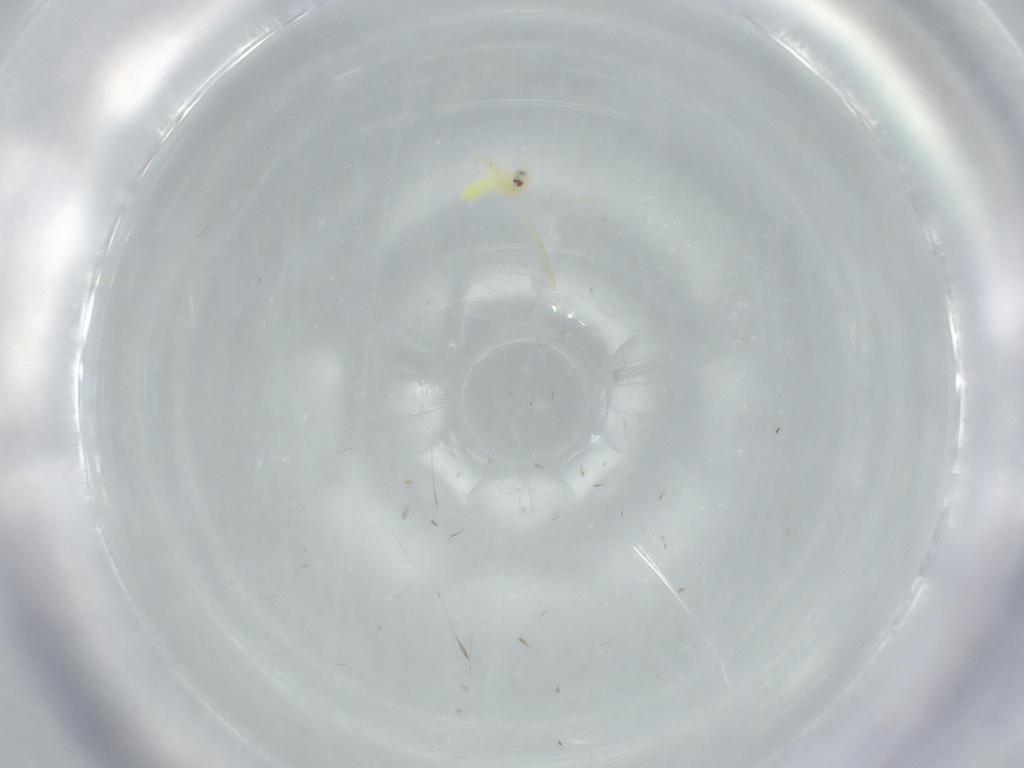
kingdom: Animalia
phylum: Arthropoda
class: Insecta
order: Hemiptera
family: Aleyrodidae
